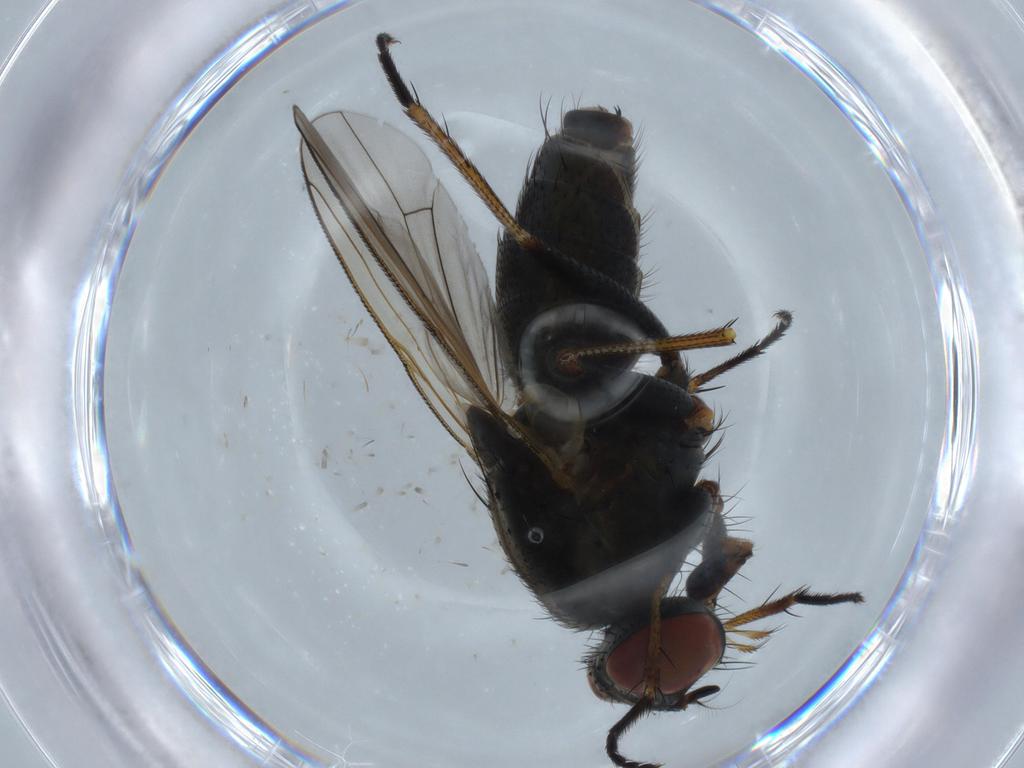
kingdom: Animalia
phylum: Arthropoda
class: Insecta
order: Diptera
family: Muscidae
